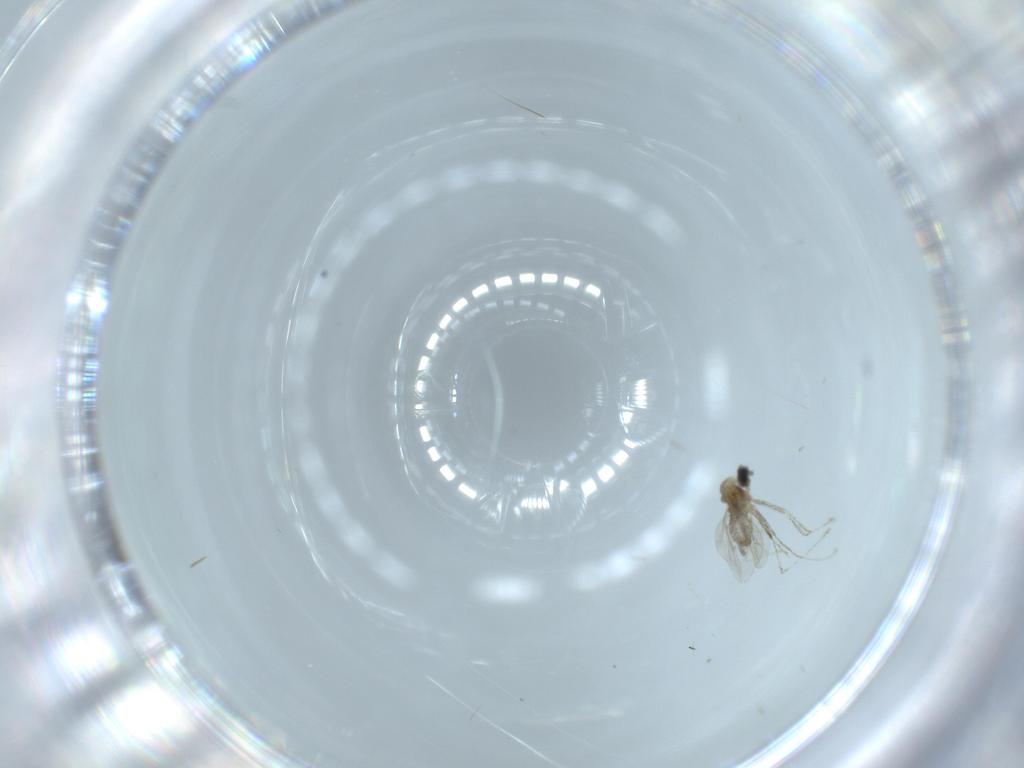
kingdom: Animalia
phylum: Arthropoda
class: Insecta
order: Diptera
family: Cecidomyiidae
